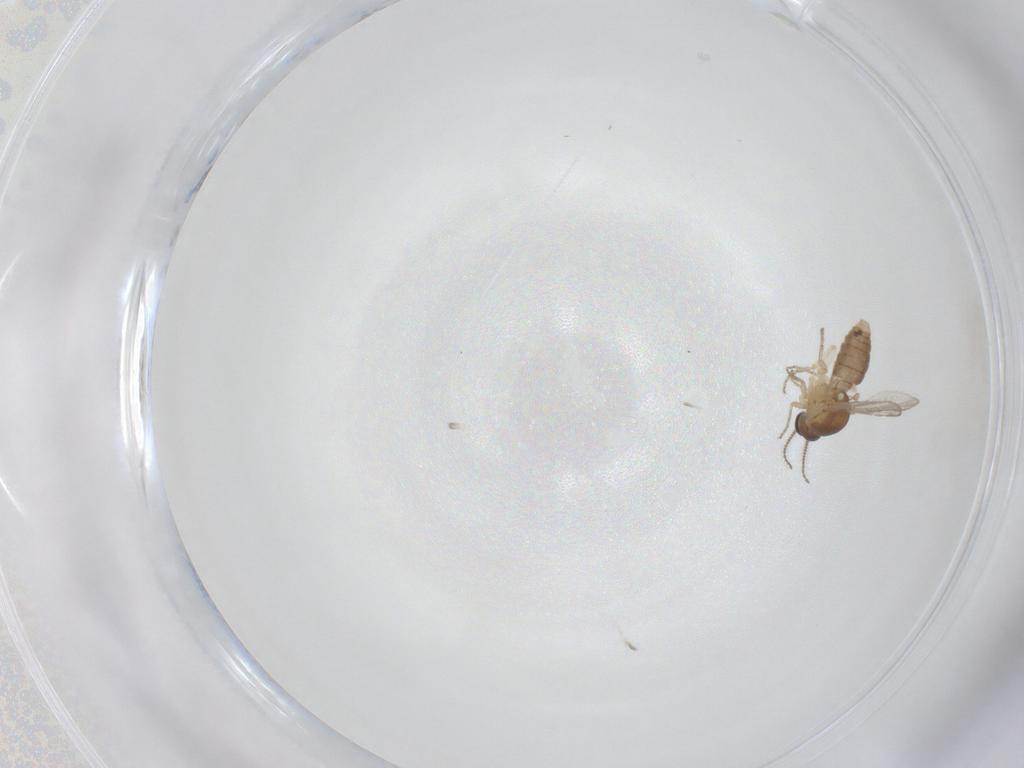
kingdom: Animalia
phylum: Arthropoda
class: Insecta
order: Diptera
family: Ceratopogonidae
